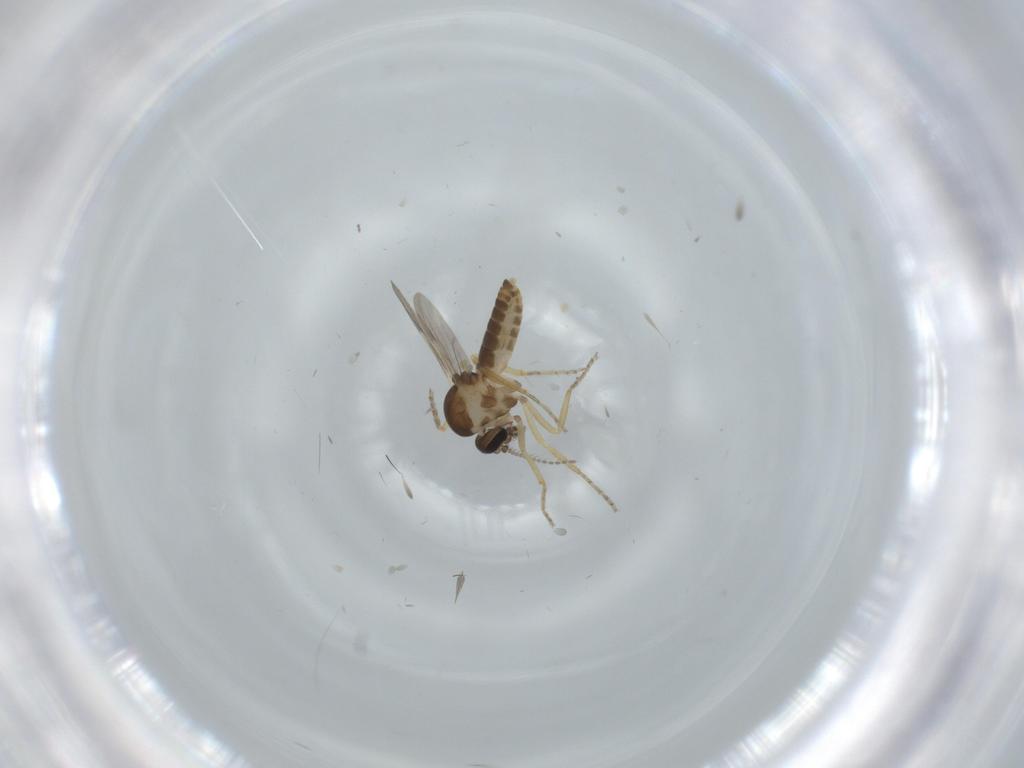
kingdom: Animalia
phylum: Arthropoda
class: Insecta
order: Diptera
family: Ceratopogonidae
